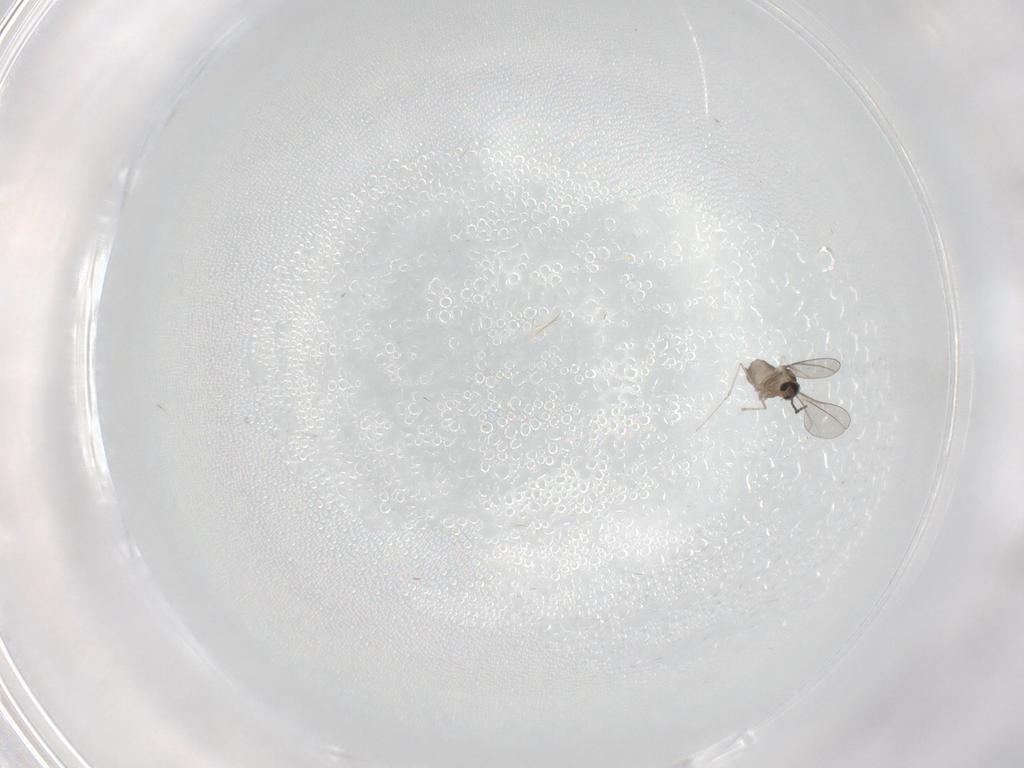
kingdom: Animalia
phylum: Arthropoda
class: Insecta
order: Diptera
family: Cecidomyiidae
